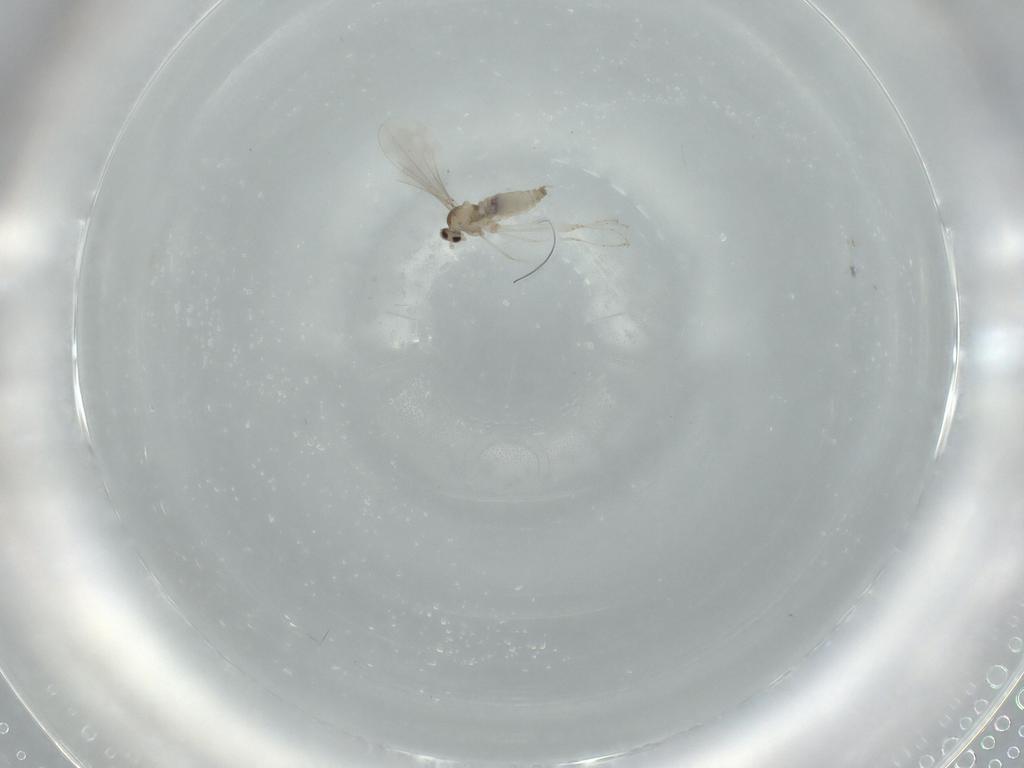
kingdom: Animalia
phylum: Arthropoda
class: Insecta
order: Diptera
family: Cecidomyiidae
